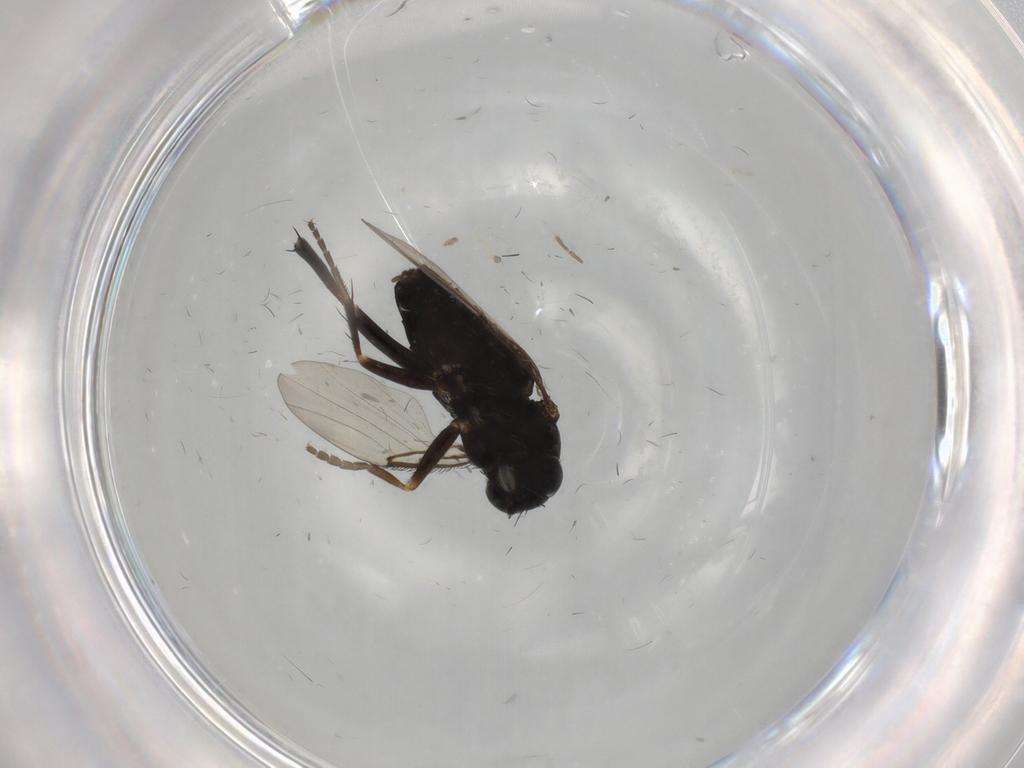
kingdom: Animalia
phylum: Arthropoda
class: Insecta
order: Diptera
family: Phoridae
